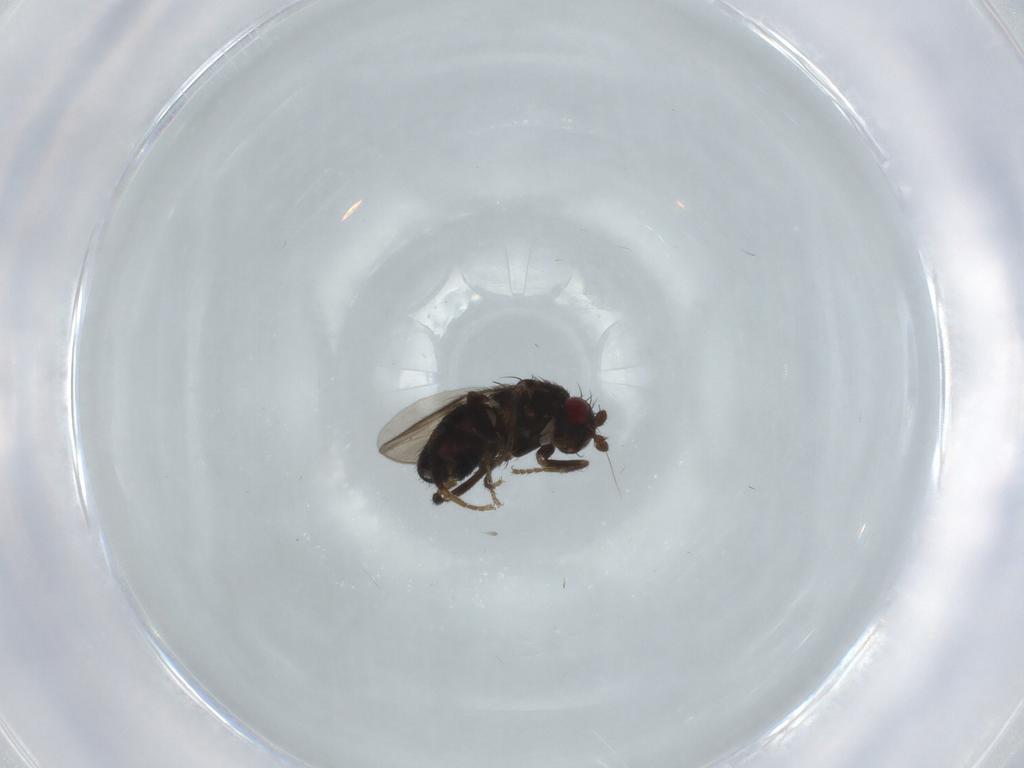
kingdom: Animalia
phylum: Arthropoda
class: Insecta
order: Diptera
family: Sphaeroceridae
